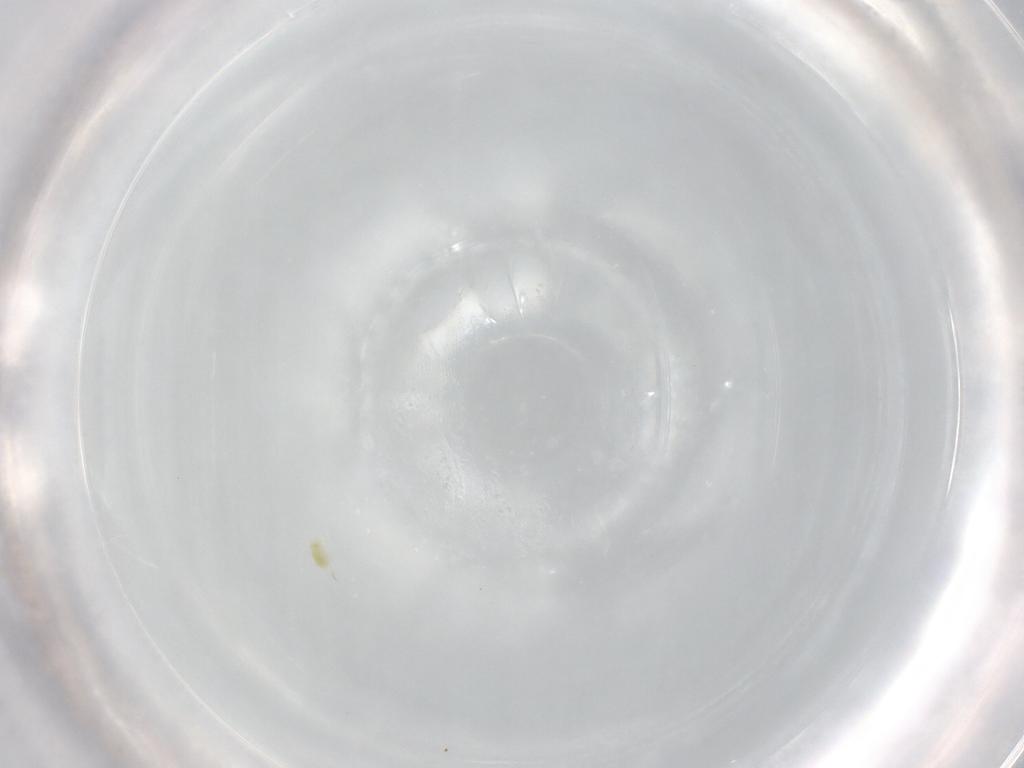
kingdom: Animalia
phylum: Arthropoda
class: Arachnida
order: Trombidiformes
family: Eupodidae
